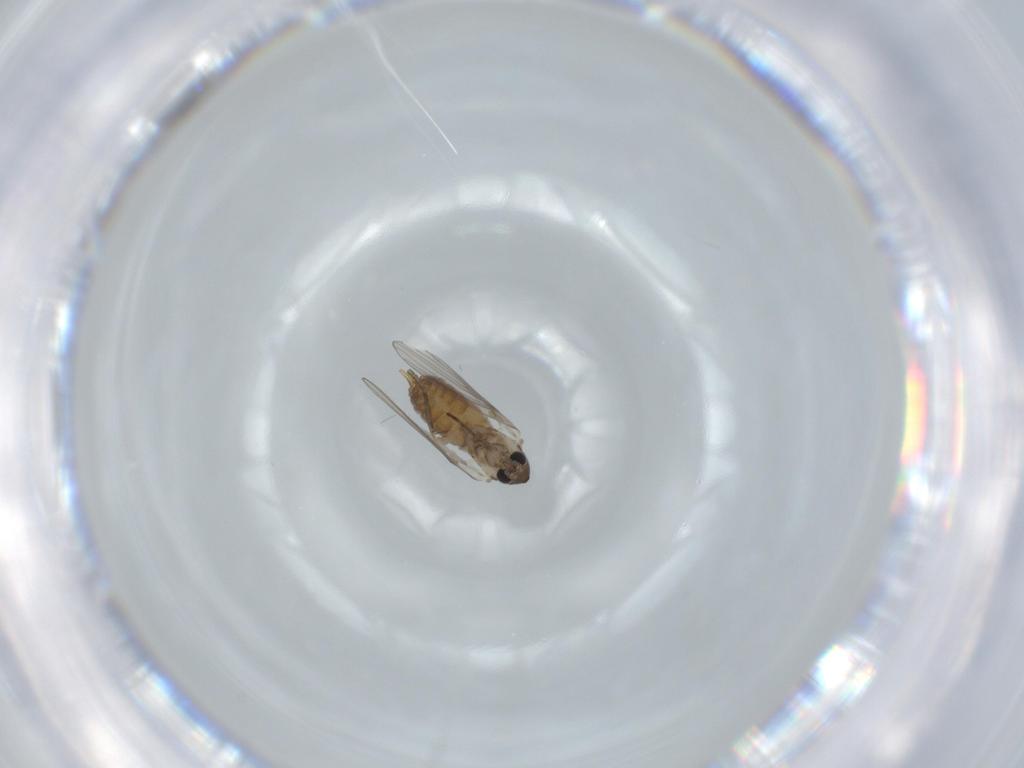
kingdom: Animalia
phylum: Arthropoda
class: Insecta
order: Diptera
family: Psychodidae
